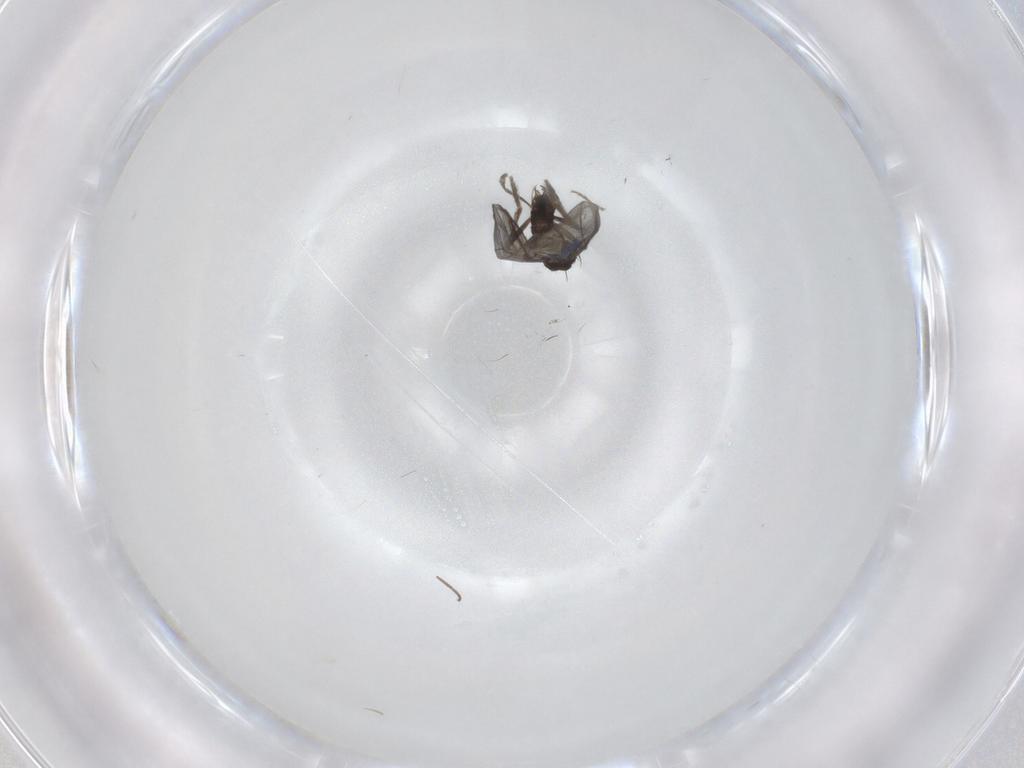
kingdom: Animalia
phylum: Arthropoda
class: Insecta
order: Diptera
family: Phoridae
